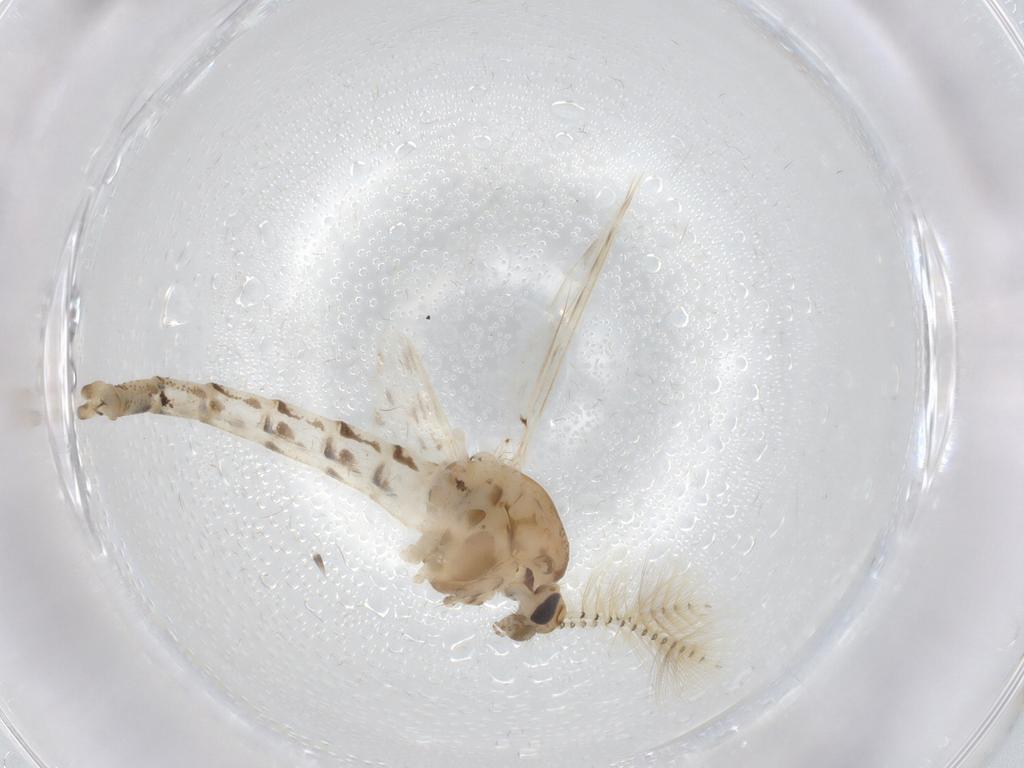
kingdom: Animalia
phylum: Arthropoda
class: Insecta
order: Diptera
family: Chaoboridae
